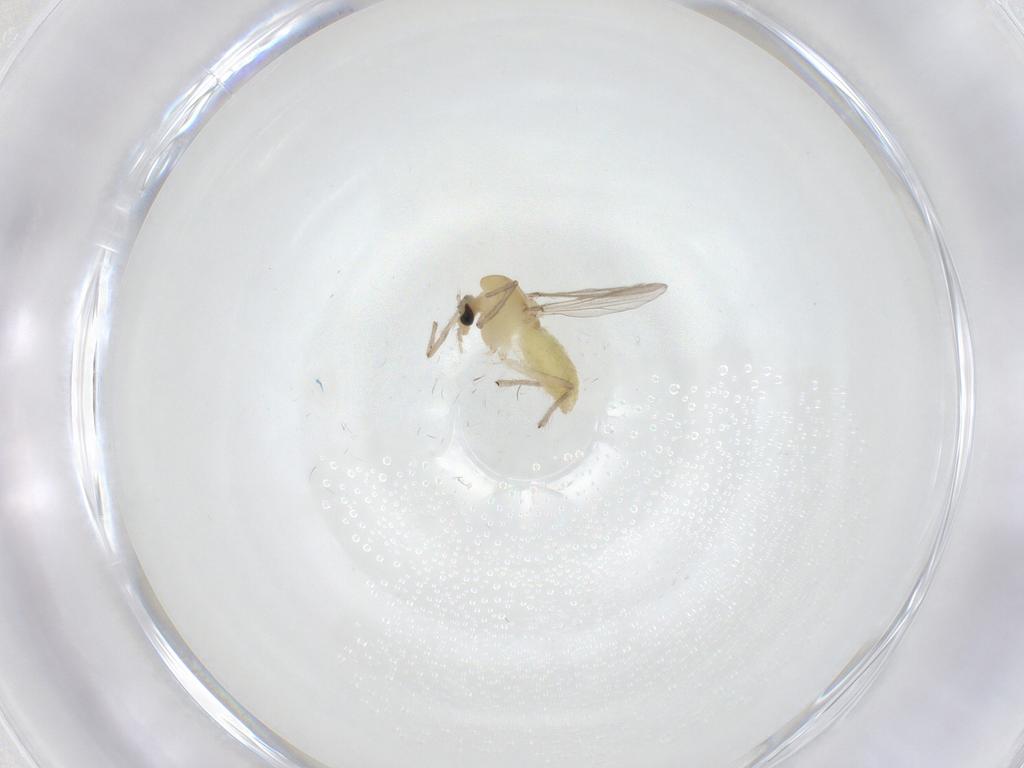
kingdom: Animalia
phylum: Arthropoda
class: Insecta
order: Diptera
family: Chironomidae
